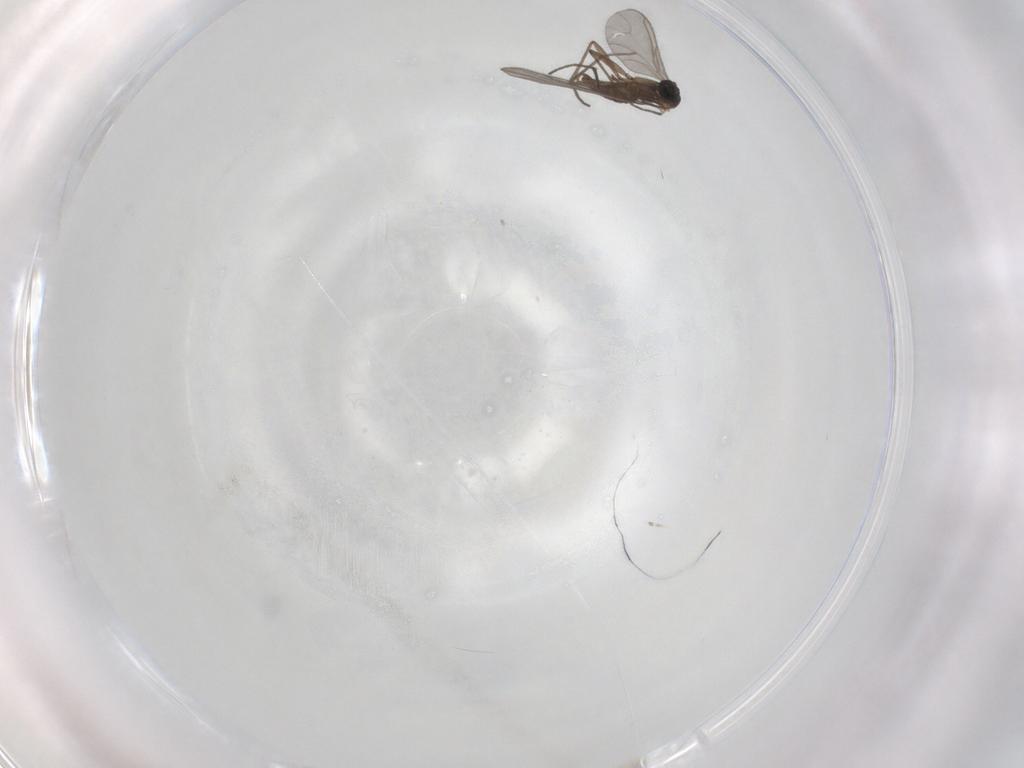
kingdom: Animalia
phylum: Arthropoda
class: Insecta
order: Diptera
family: Sciaridae
